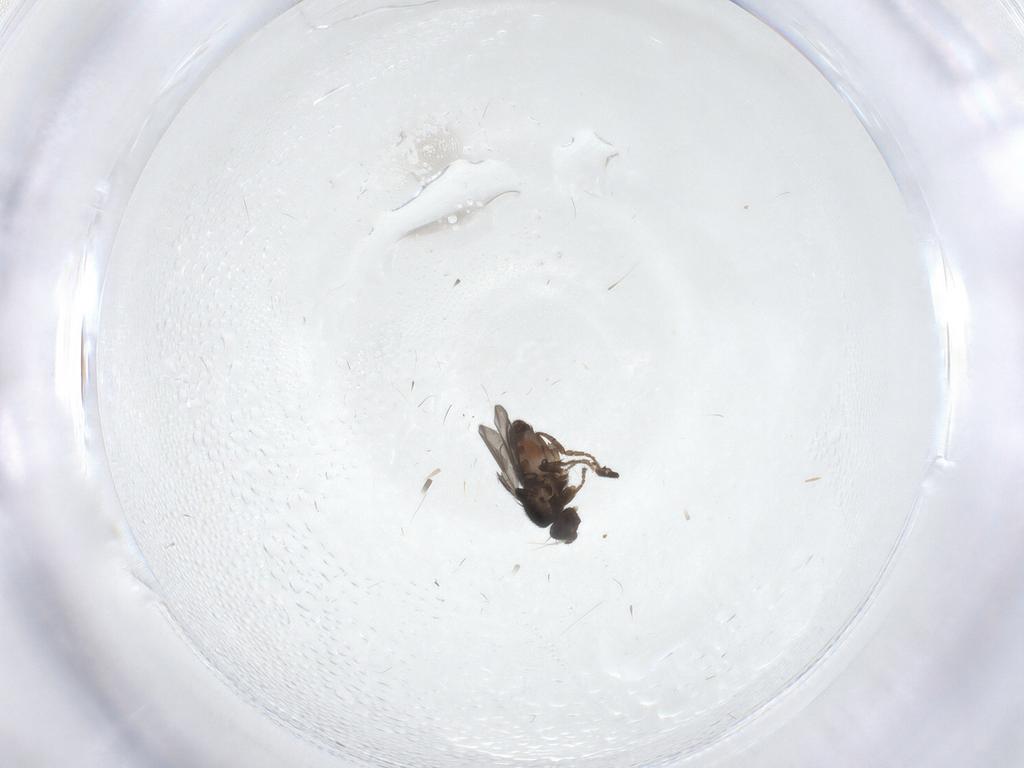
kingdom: Animalia
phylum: Arthropoda
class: Insecta
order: Diptera
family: Sphaeroceridae
